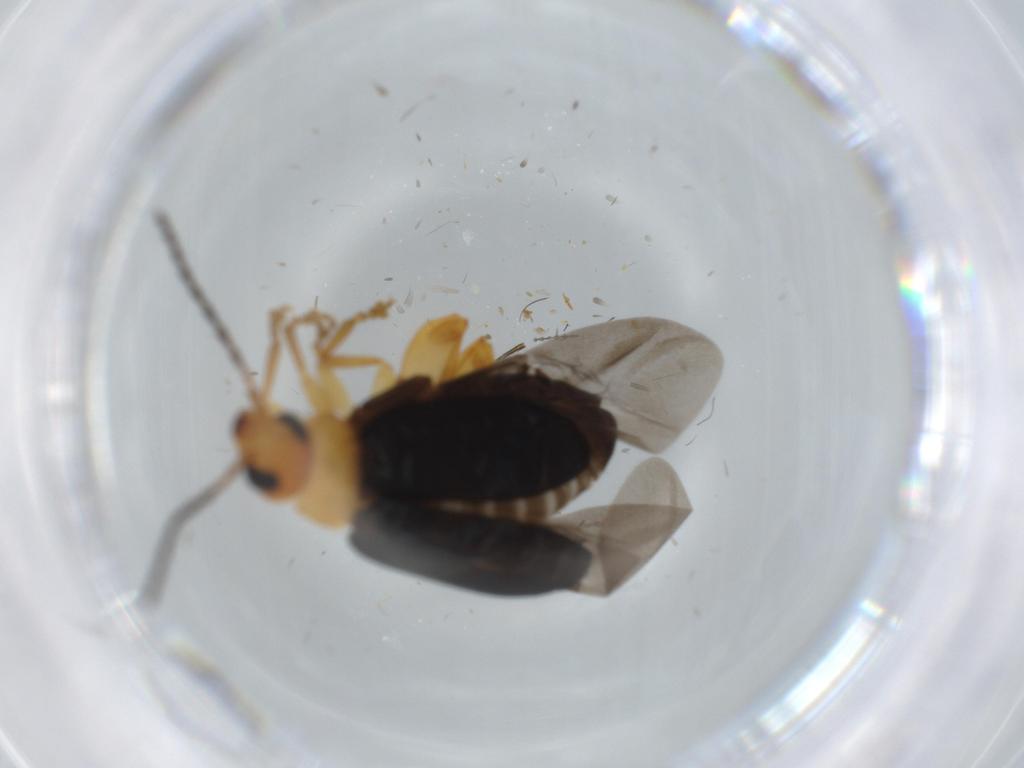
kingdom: Animalia
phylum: Arthropoda
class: Insecta
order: Coleoptera
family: Chrysomelidae
